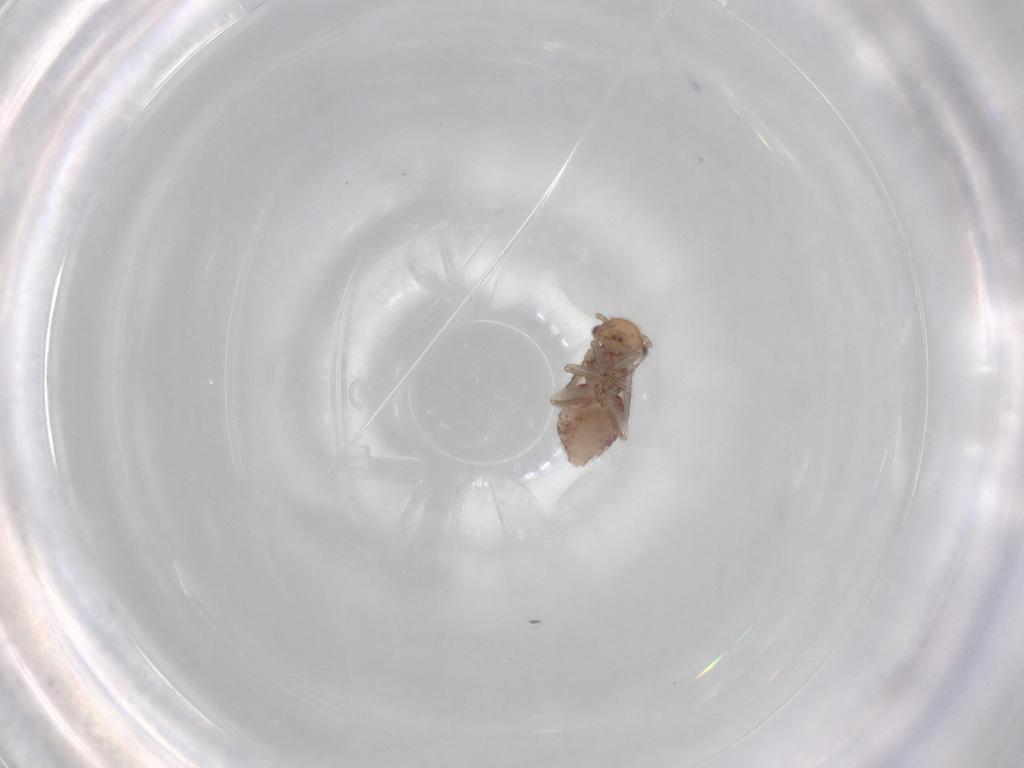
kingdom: Animalia
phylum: Arthropoda
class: Insecta
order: Psocodea
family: Ectopsocidae
